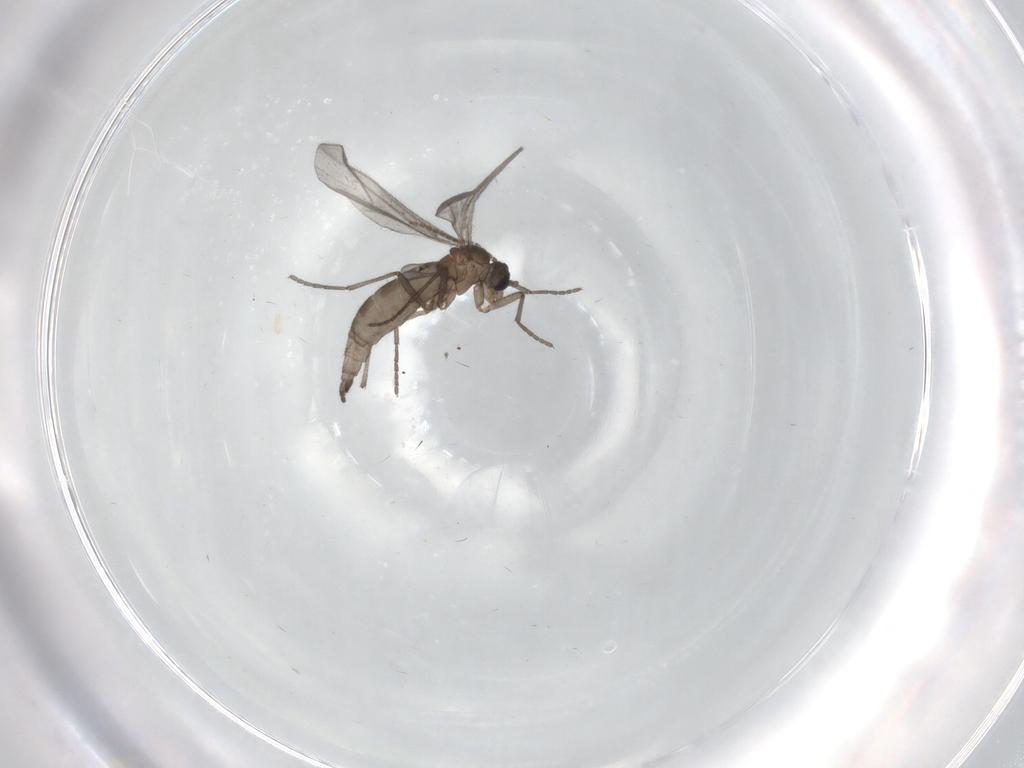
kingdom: Animalia
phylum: Arthropoda
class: Insecta
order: Diptera
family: Sciaridae
